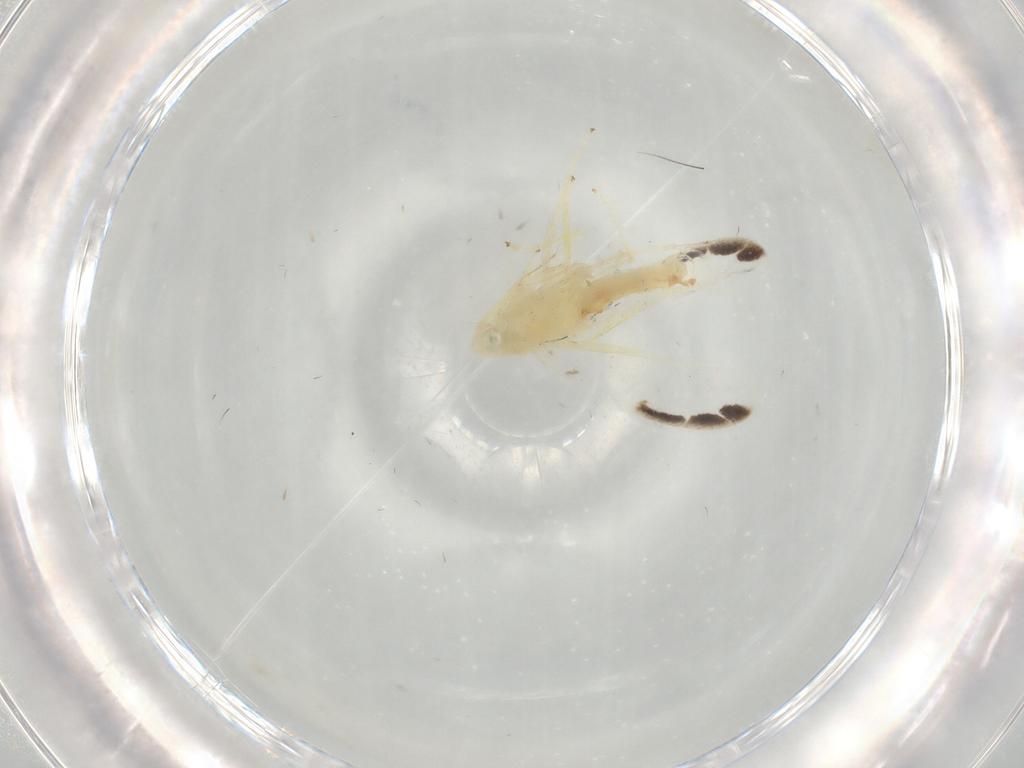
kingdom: Animalia
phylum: Arthropoda
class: Insecta
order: Hemiptera
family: Cicadellidae
